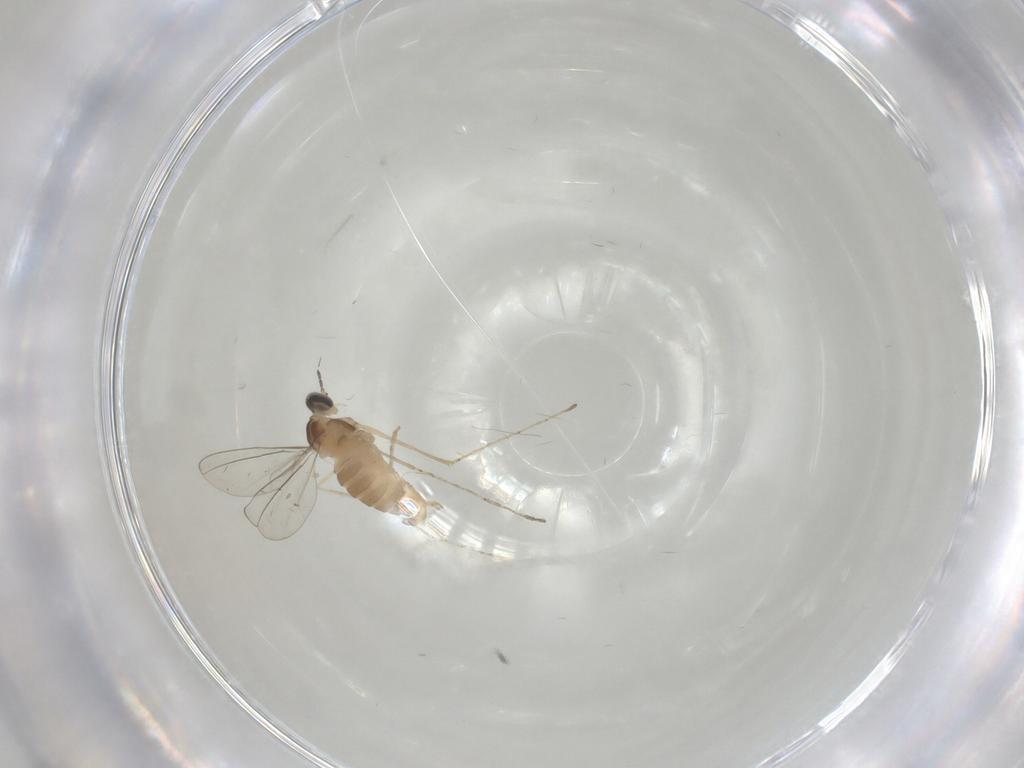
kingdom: Animalia
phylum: Arthropoda
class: Insecta
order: Diptera
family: Cecidomyiidae
